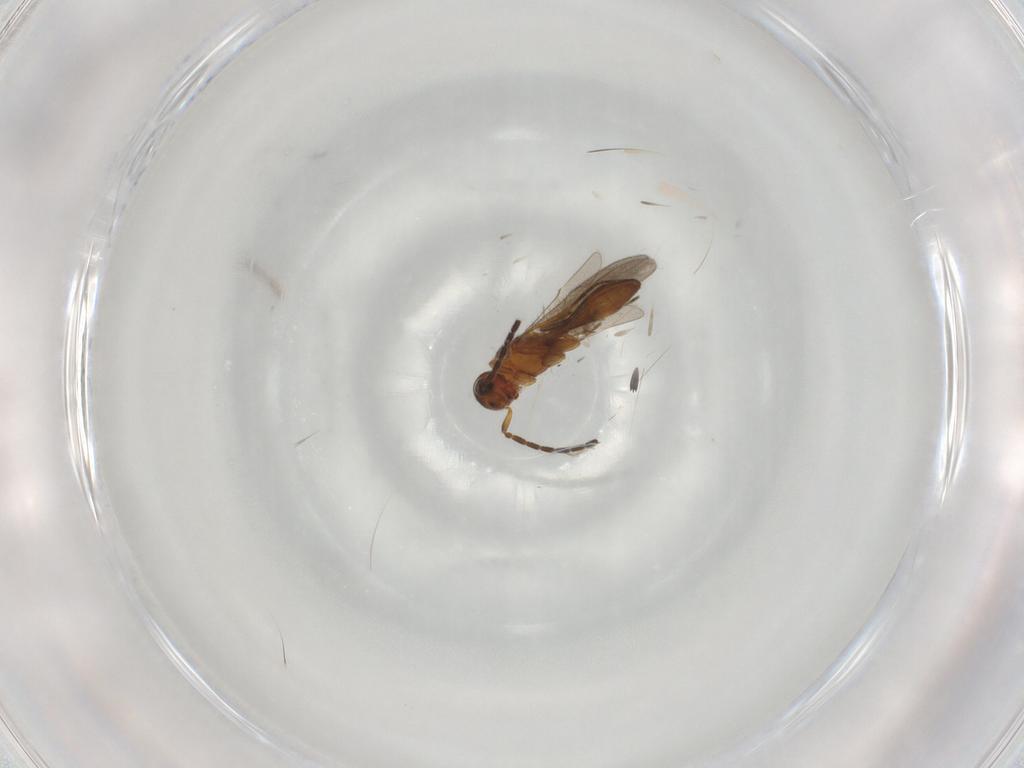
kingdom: Animalia
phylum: Arthropoda
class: Insecta
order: Hymenoptera
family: Scelionidae
